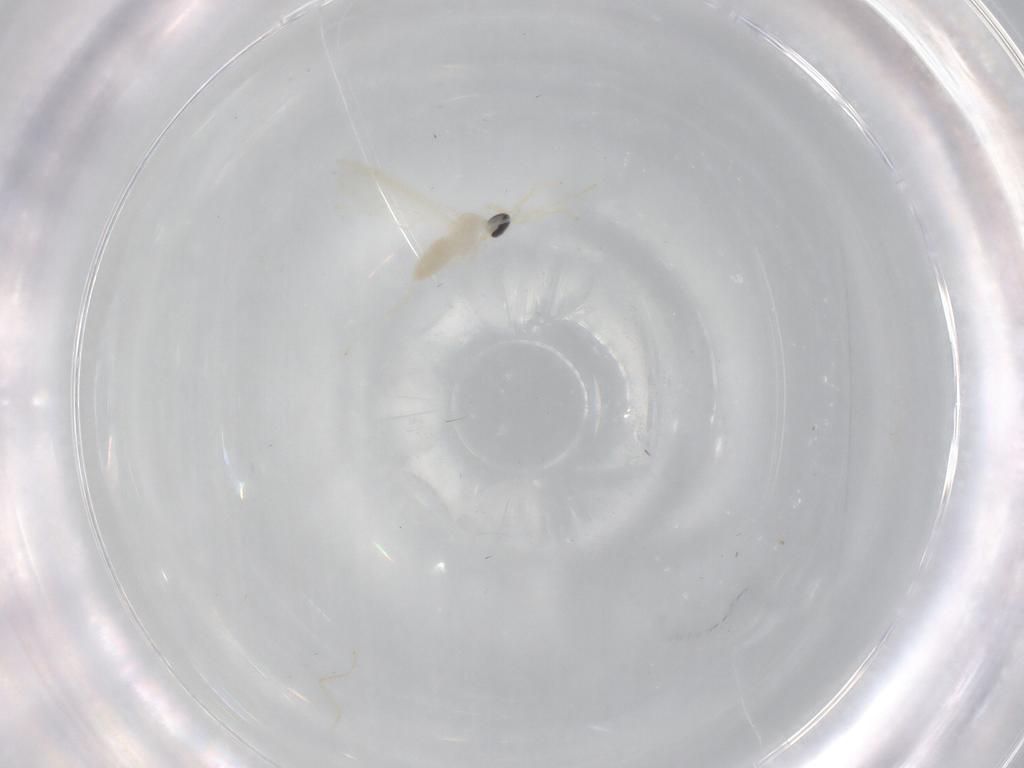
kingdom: Animalia
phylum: Arthropoda
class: Insecta
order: Diptera
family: Cecidomyiidae
